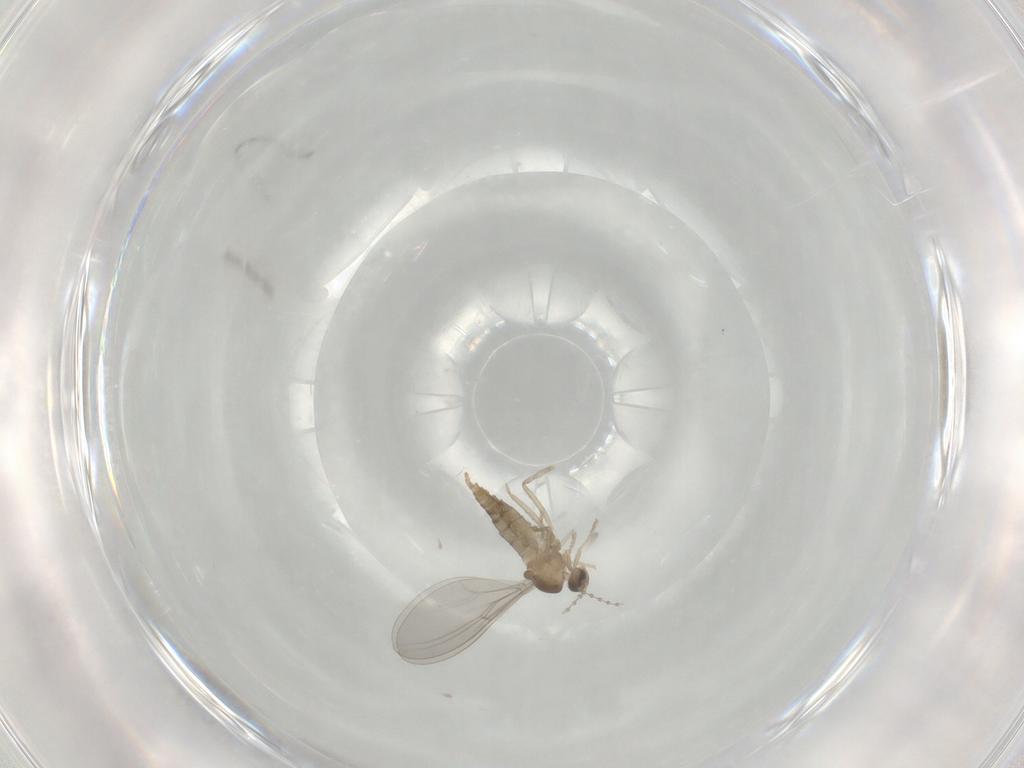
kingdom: Animalia
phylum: Arthropoda
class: Insecta
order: Diptera
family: Cecidomyiidae
